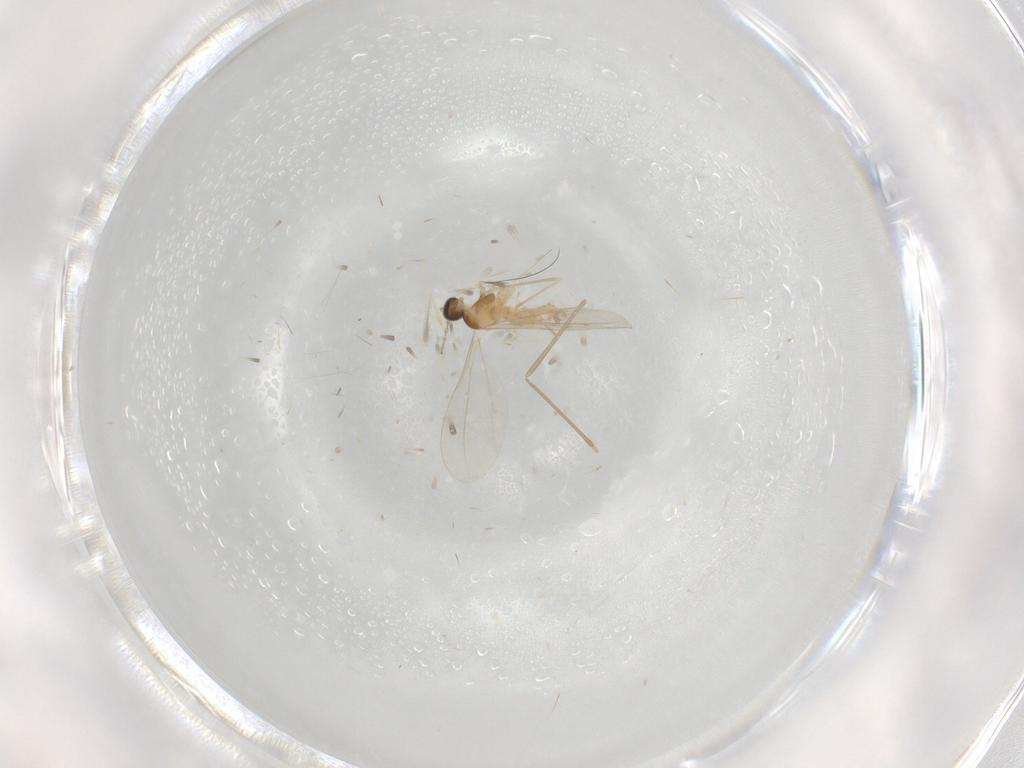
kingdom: Animalia
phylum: Arthropoda
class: Insecta
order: Diptera
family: Cecidomyiidae
